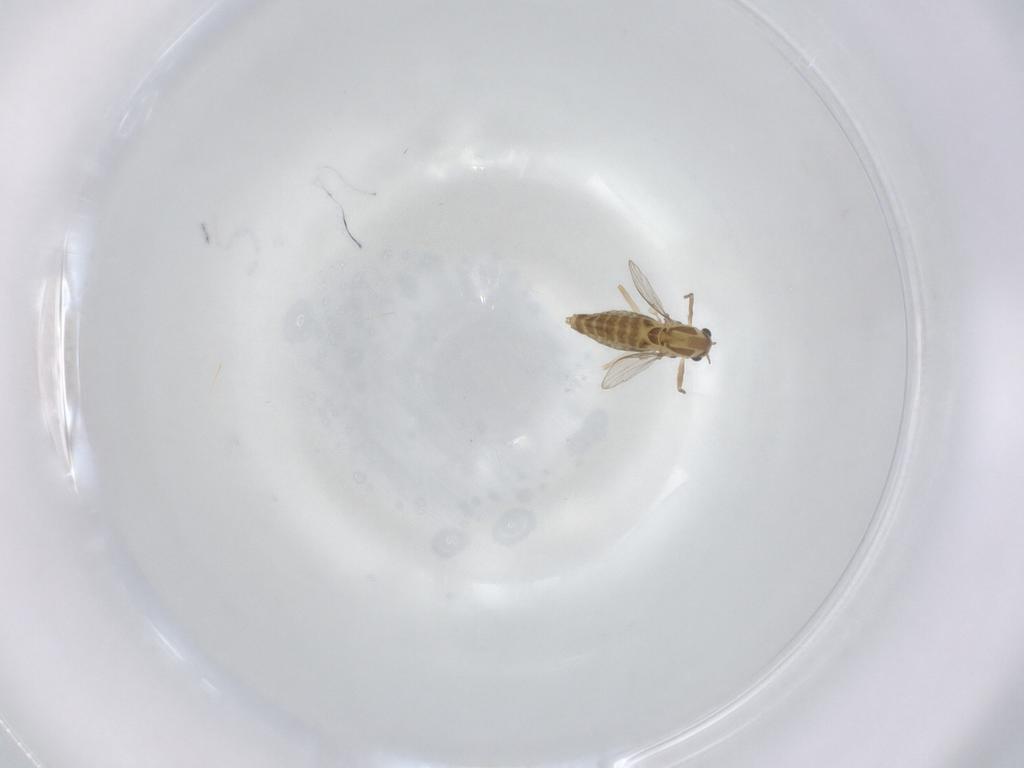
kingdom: Animalia
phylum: Arthropoda
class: Insecta
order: Diptera
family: Chironomidae
